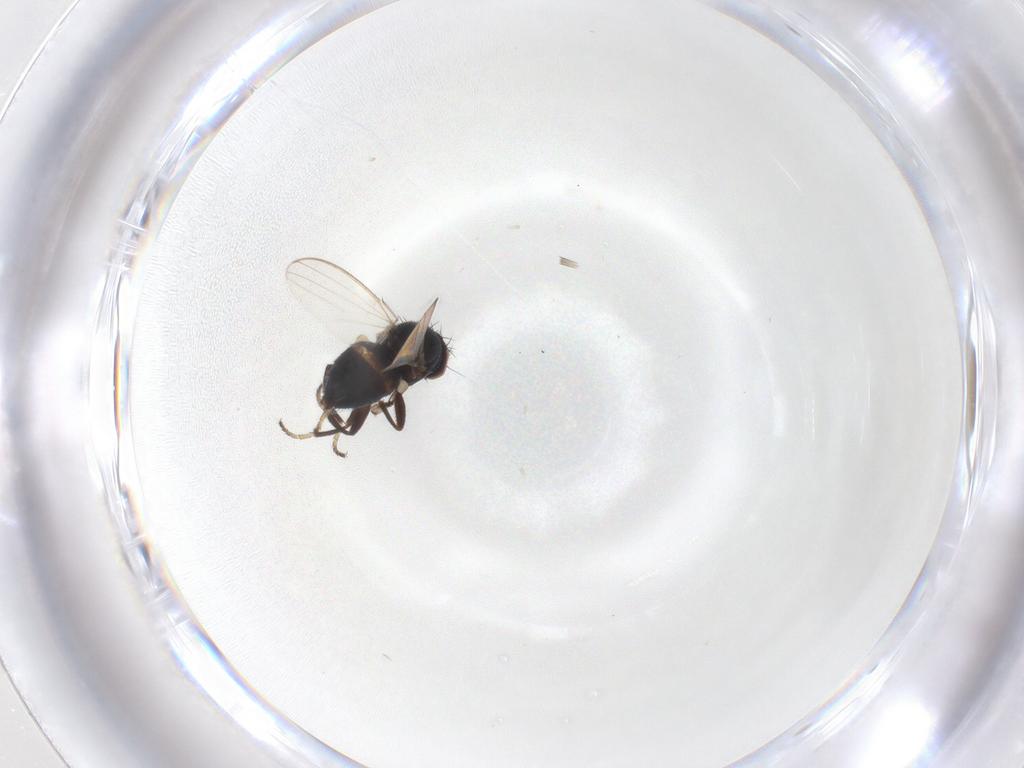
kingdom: Animalia
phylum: Arthropoda
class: Insecta
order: Diptera
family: Milichiidae
